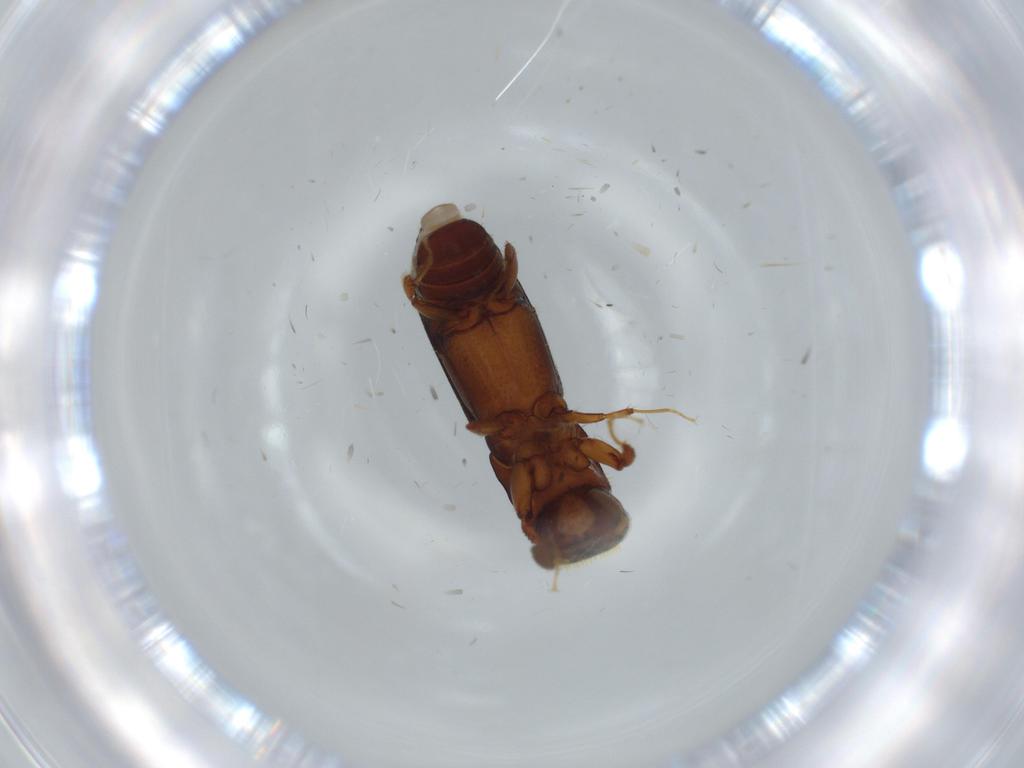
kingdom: Animalia
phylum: Arthropoda
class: Insecta
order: Coleoptera
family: Curculionidae
